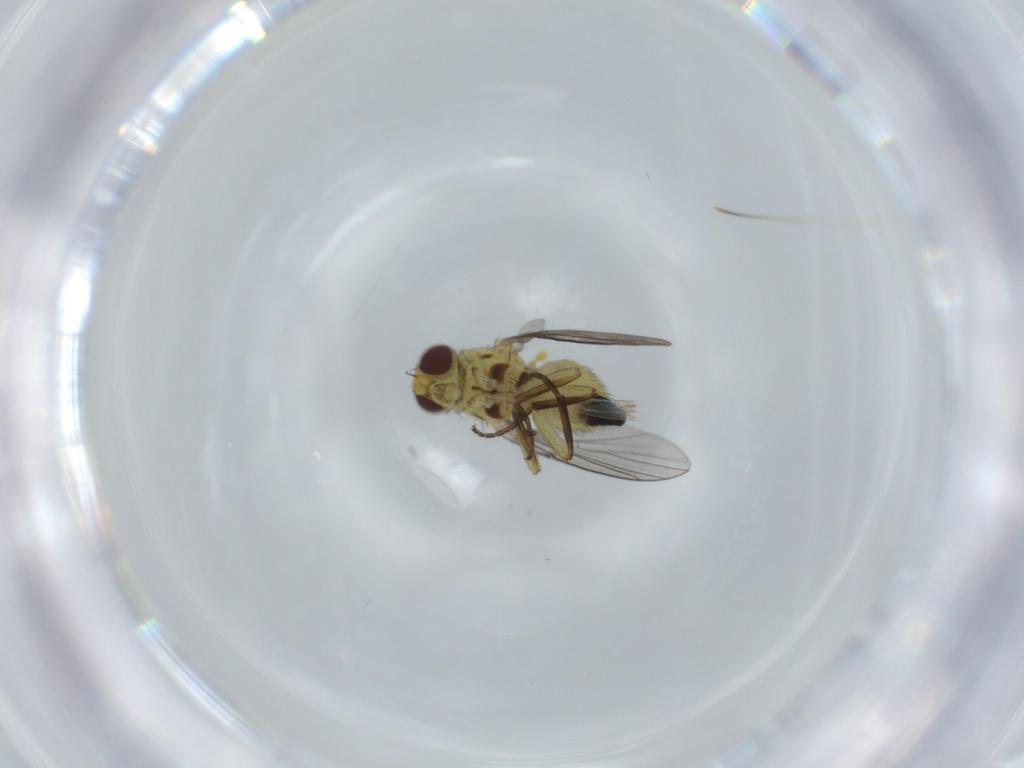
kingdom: Animalia
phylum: Arthropoda
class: Insecta
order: Diptera
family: Agromyzidae
